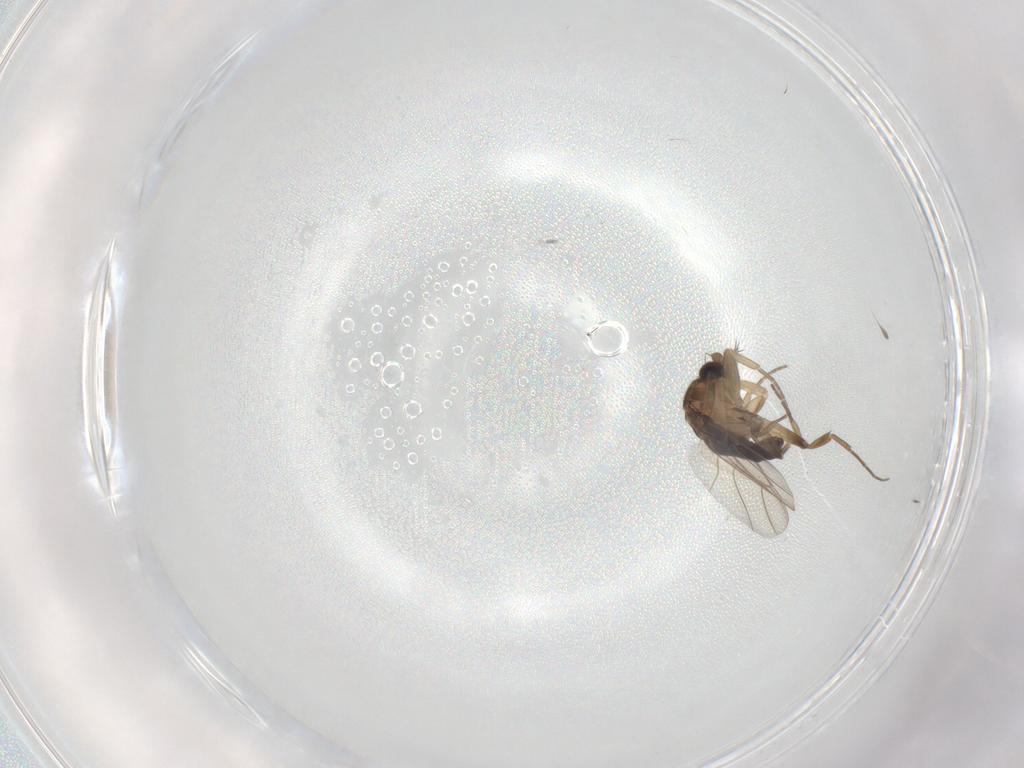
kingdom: Animalia
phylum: Arthropoda
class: Insecta
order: Diptera
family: Phoridae
